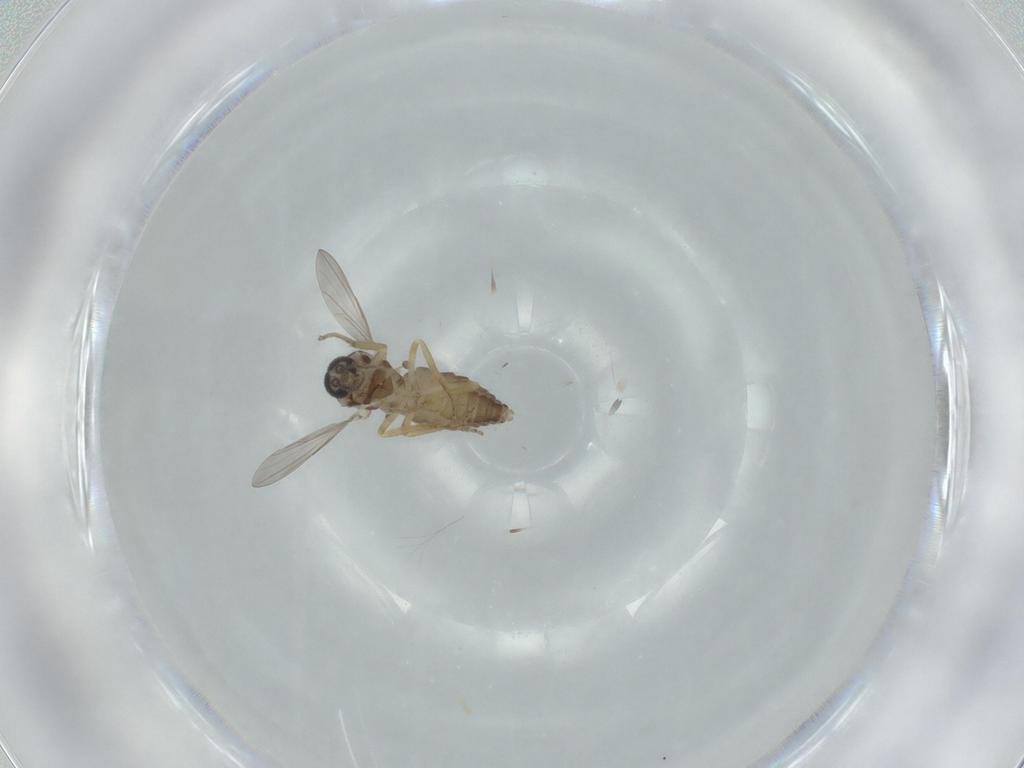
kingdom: Animalia
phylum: Arthropoda
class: Insecta
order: Diptera
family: Ceratopogonidae
